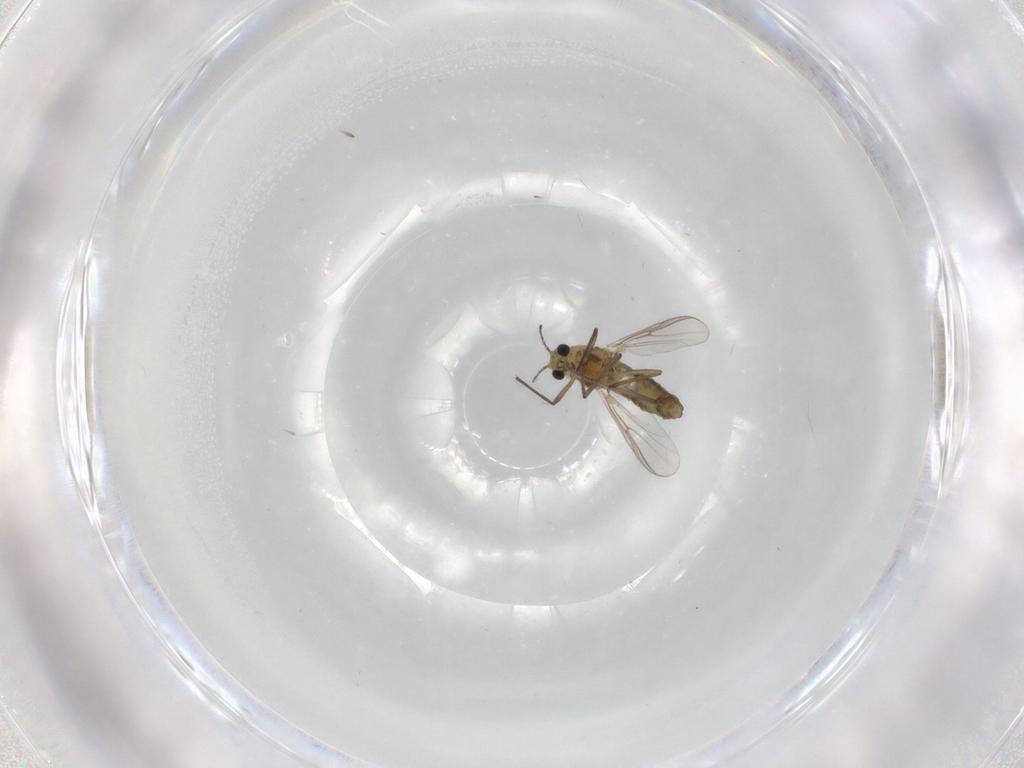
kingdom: Animalia
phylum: Arthropoda
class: Insecta
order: Diptera
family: Chironomidae
